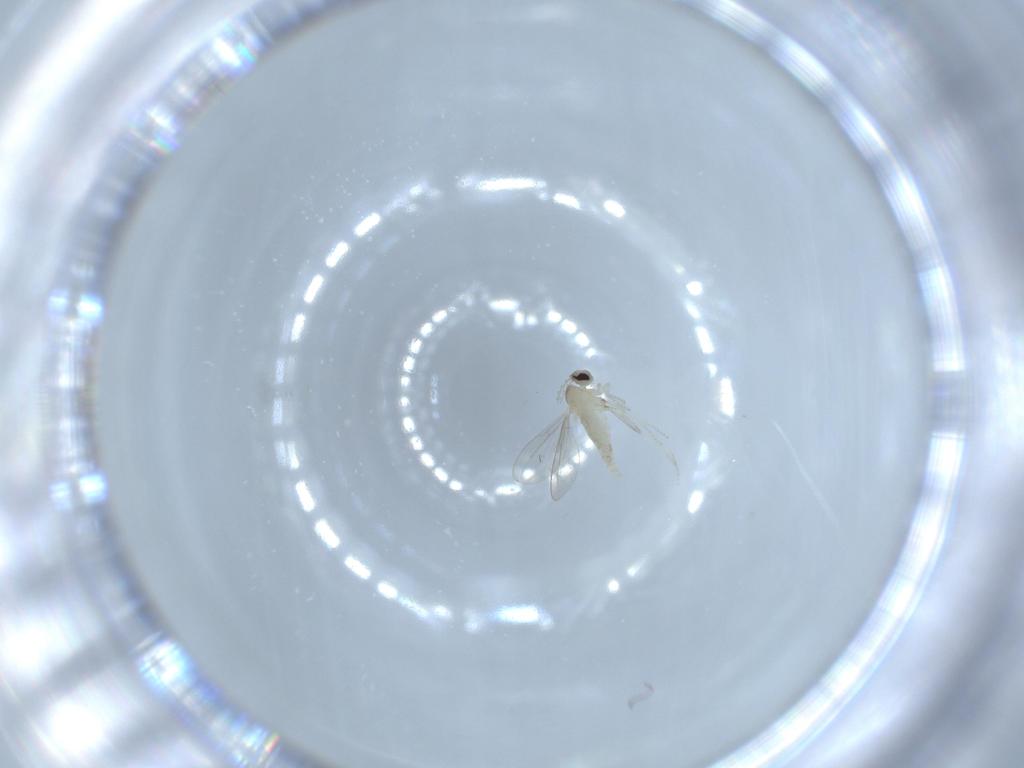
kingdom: Animalia
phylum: Arthropoda
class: Insecta
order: Diptera
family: Cecidomyiidae
